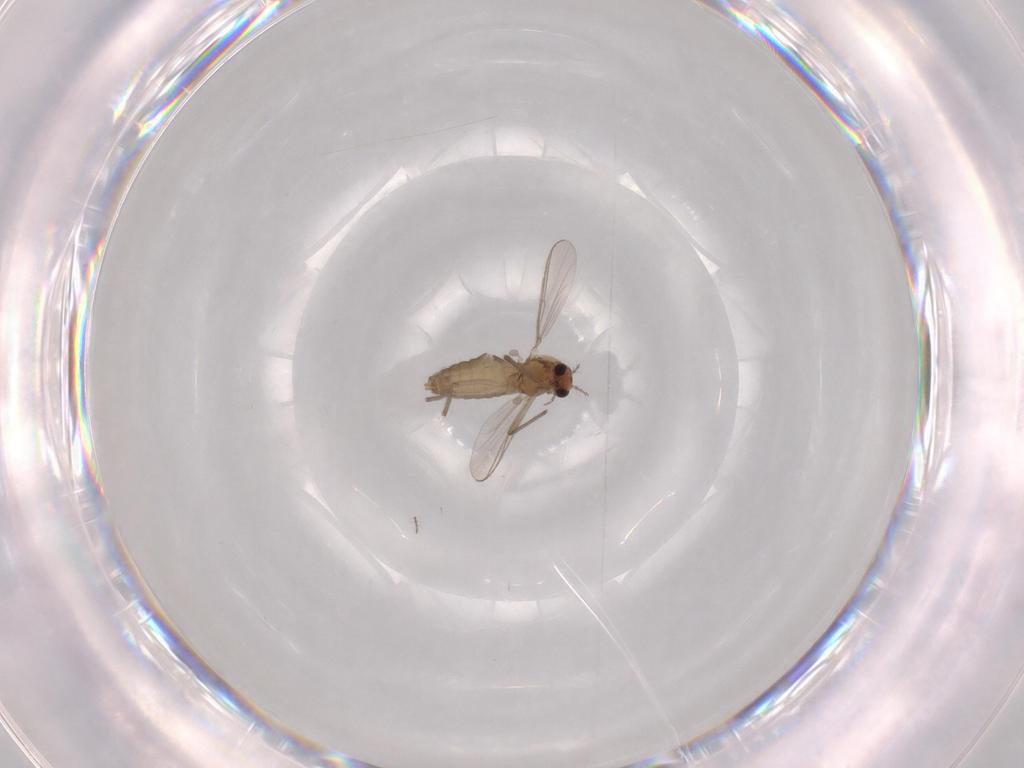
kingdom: Animalia
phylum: Arthropoda
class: Insecta
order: Diptera
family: Chironomidae
